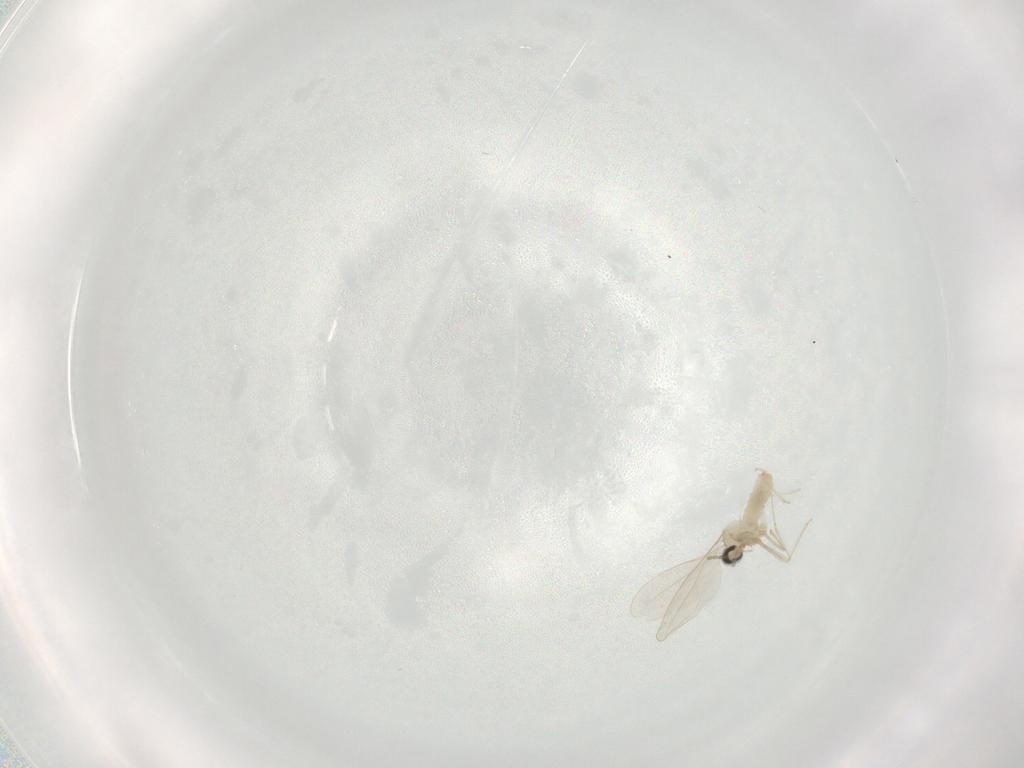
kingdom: Animalia
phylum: Arthropoda
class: Insecta
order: Diptera
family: Cecidomyiidae
